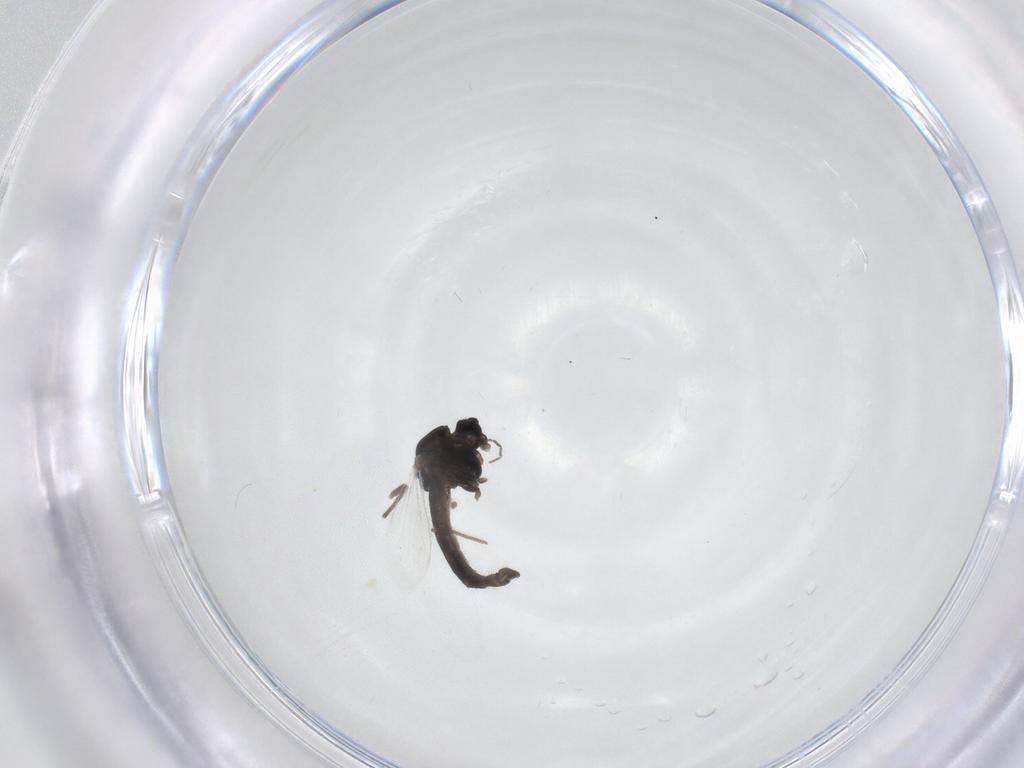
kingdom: Animalia
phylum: Arthropoda
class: Insecta
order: Diptera
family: Chironomidae
